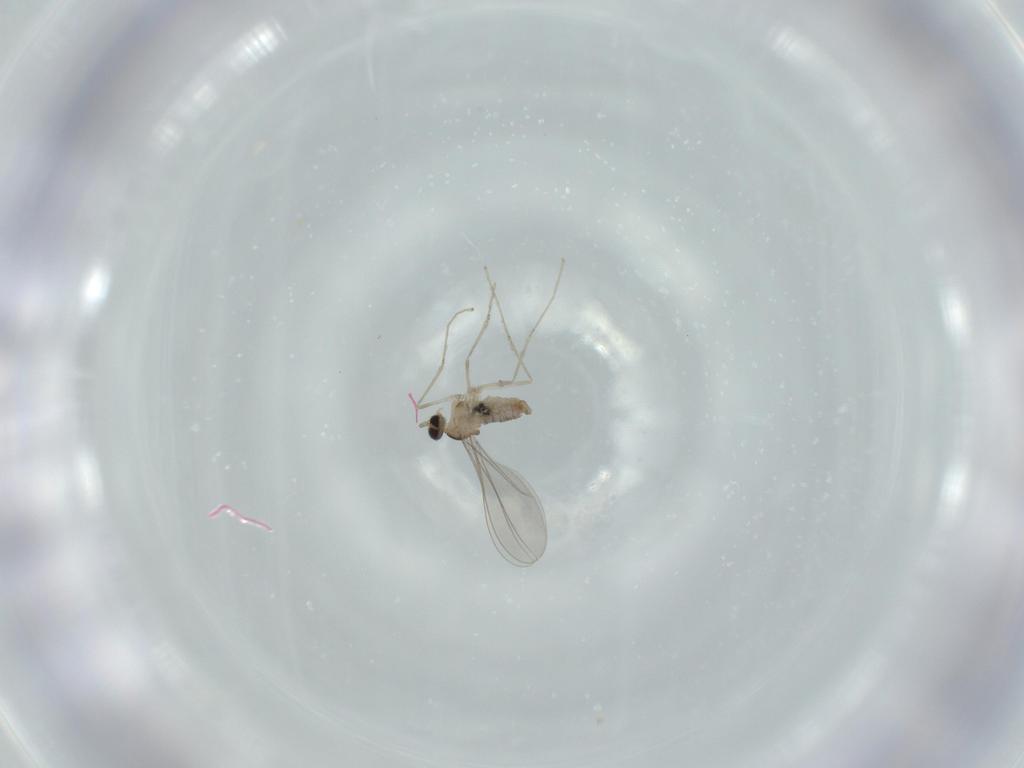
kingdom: Animalia
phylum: Arthropoda
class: Insecta
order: Diptera
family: Cecidomyiidae
